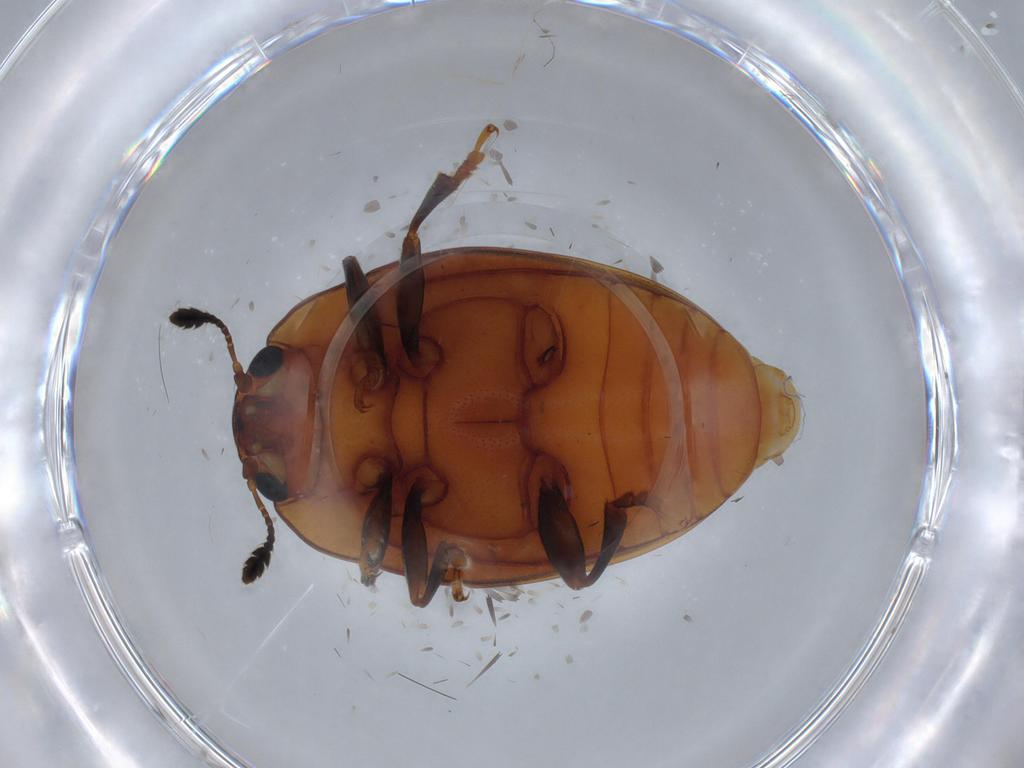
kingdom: Animalia
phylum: Arthropoda
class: Insecta
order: Coleoptera
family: Erotylidae
